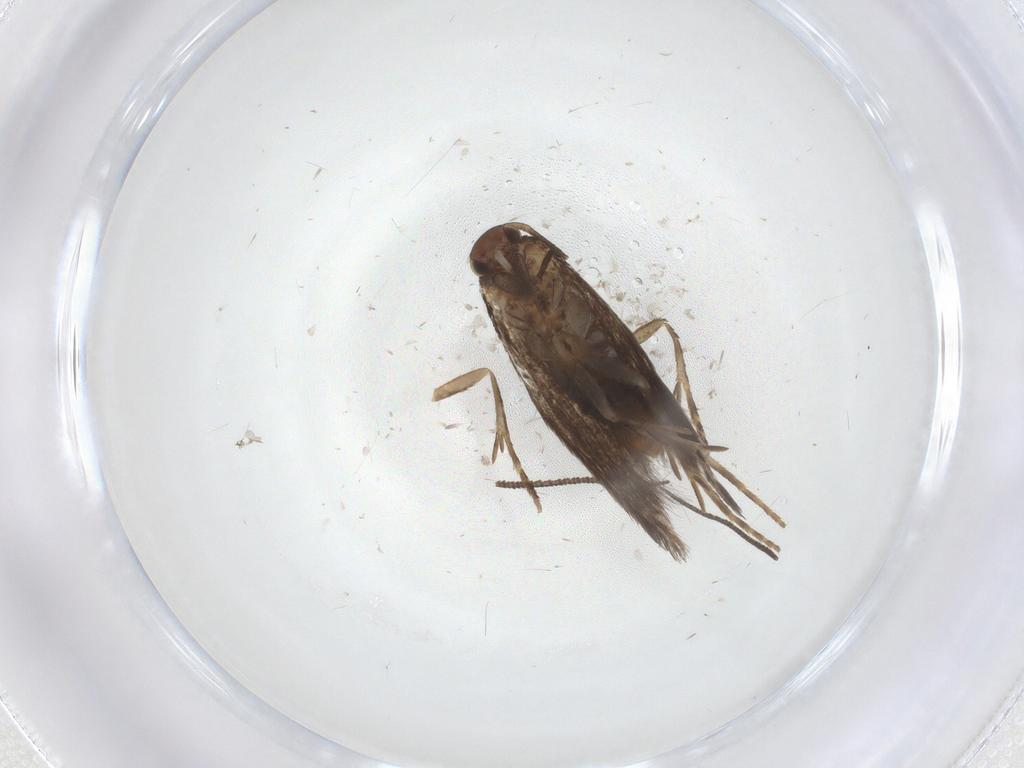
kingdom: Animalia
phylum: Arthropoda
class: Insecta
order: Lepidoptera
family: Elachistidae
